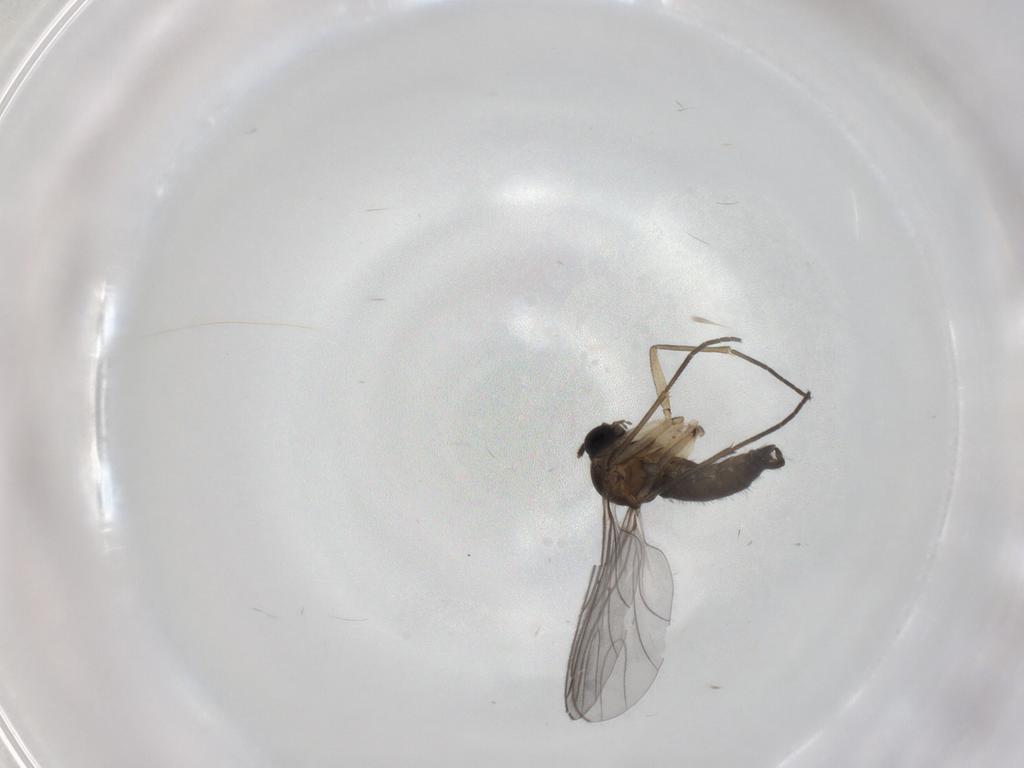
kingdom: Animalia
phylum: Arthropoda
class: Insecta
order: Diptera
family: Sciaridae
